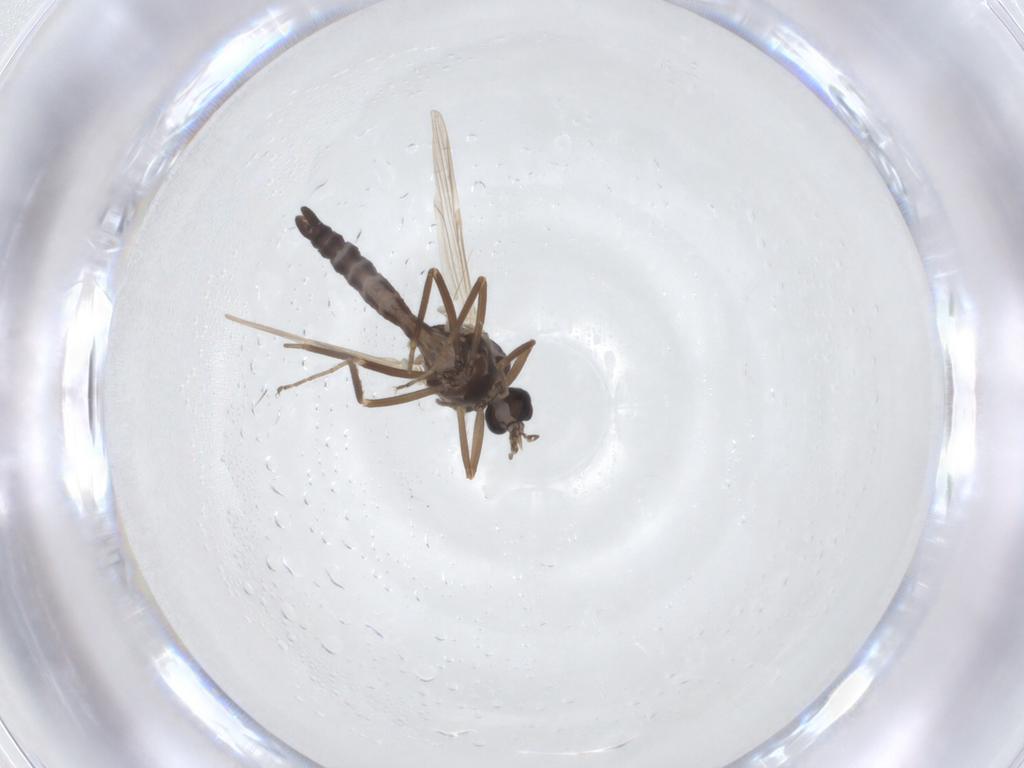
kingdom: Animalia
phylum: Arthropoda
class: Insecta
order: Diptera
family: Ceratopogonidae
